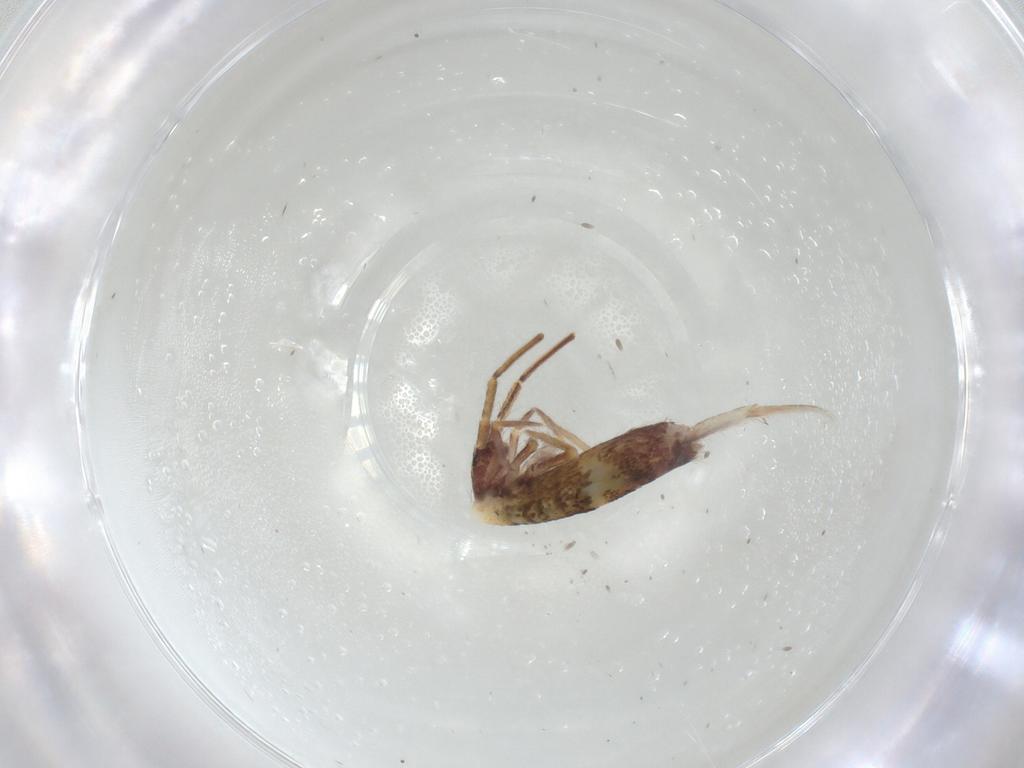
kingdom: Animalia
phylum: Arthropoda
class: Collembola
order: Entomobryomorpha
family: Entomobryidae
